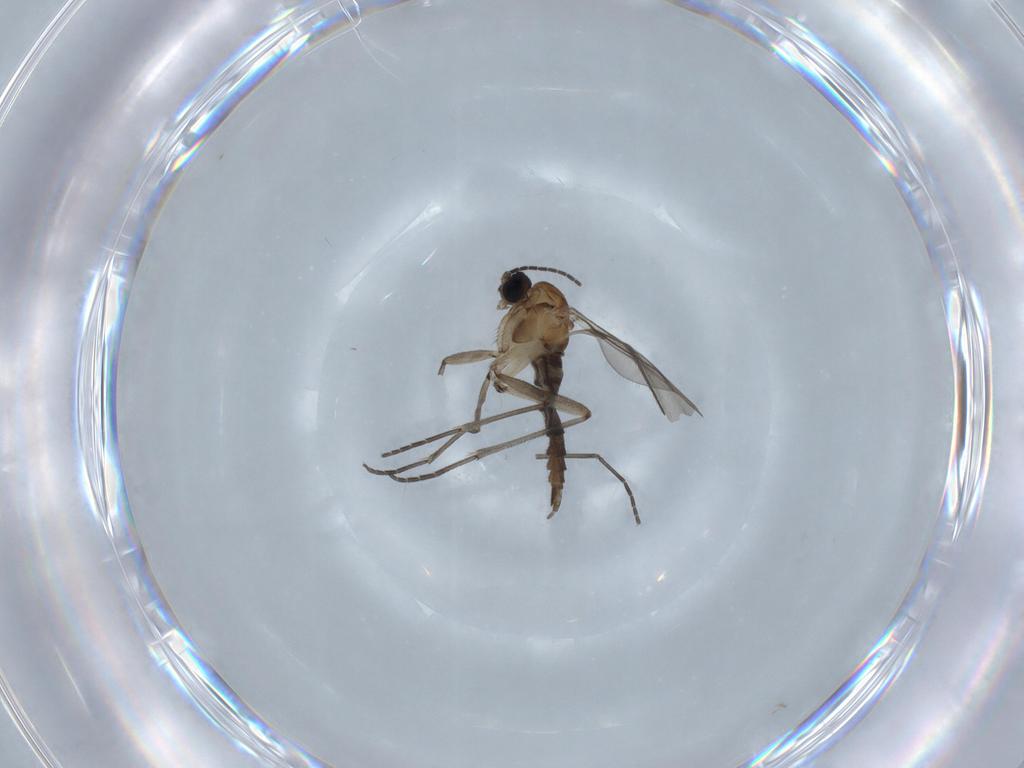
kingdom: Animalia
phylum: Arthropoda
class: Insecta
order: Diptera
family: Sciaridae
